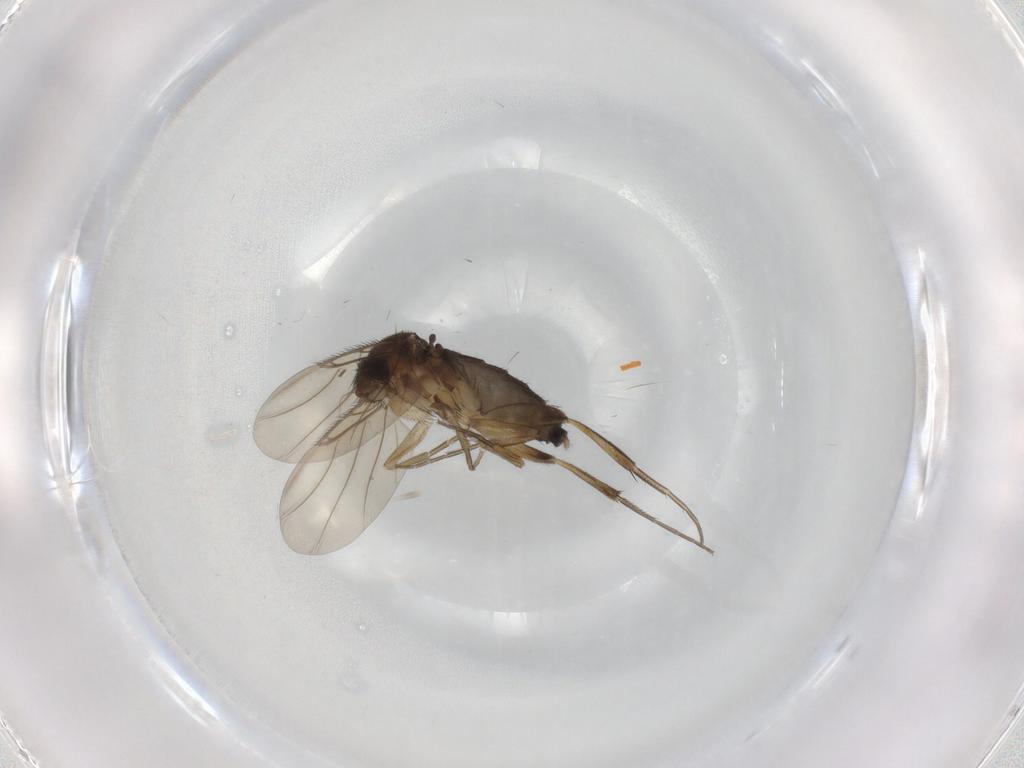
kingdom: Animalia
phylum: Arthropoda
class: Insecta
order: Diptera
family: Phoridae
